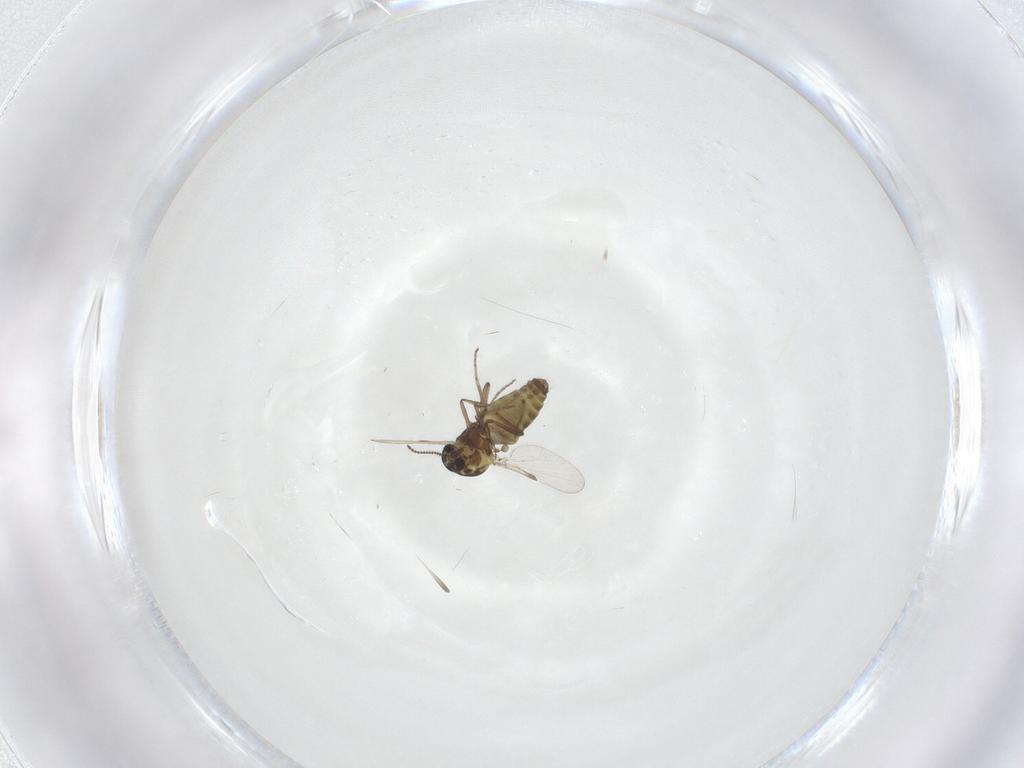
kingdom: Animalia
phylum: Arthropoda
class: Insecta
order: Diptera
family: Ceratopogonidae
